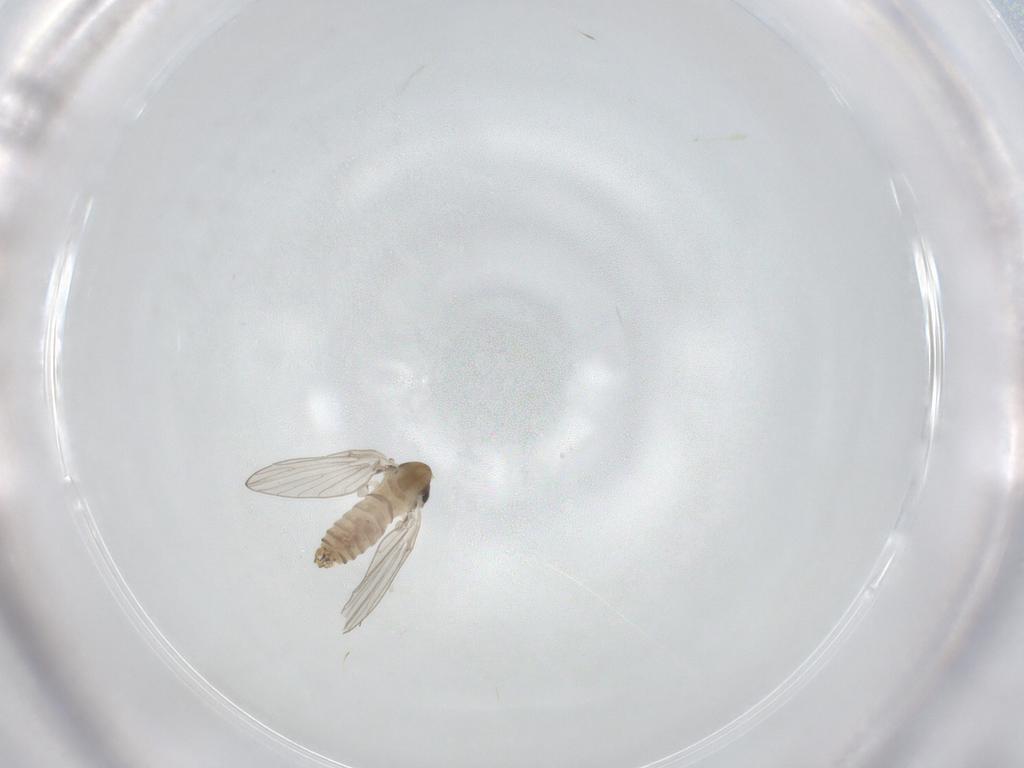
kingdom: Animalia
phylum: Arthropoda
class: Insecta
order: Diptera
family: Psychodidae
